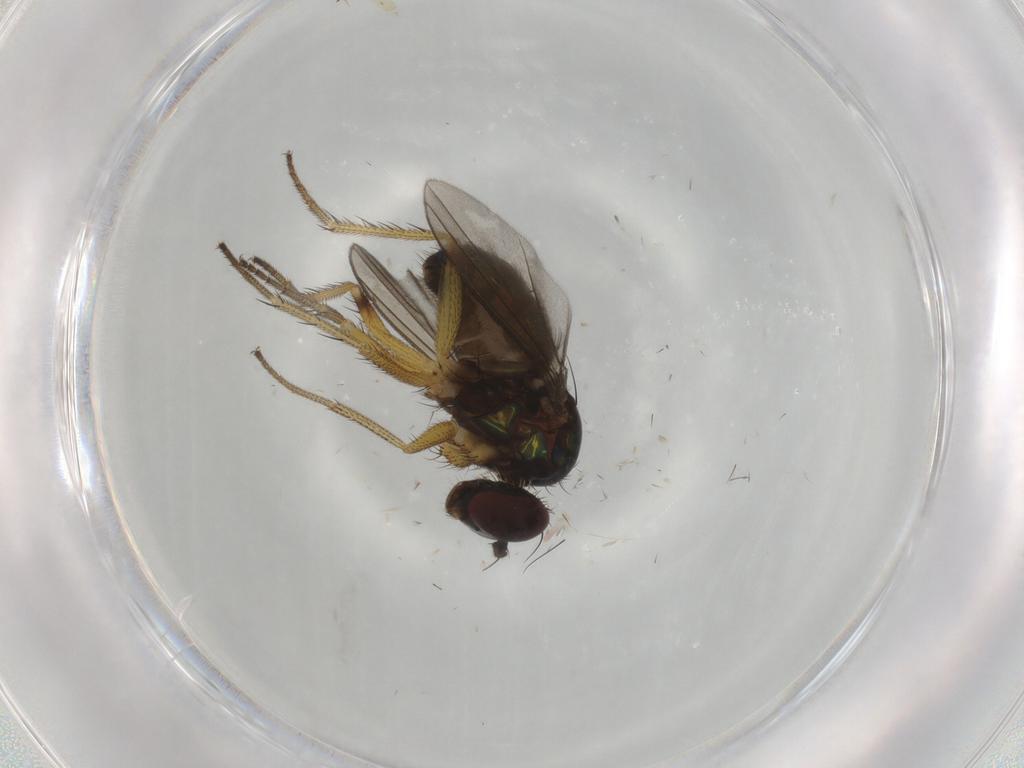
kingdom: Animalia
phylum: Arthropoda
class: Insecta
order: Diptera
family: Dolichopodidae
